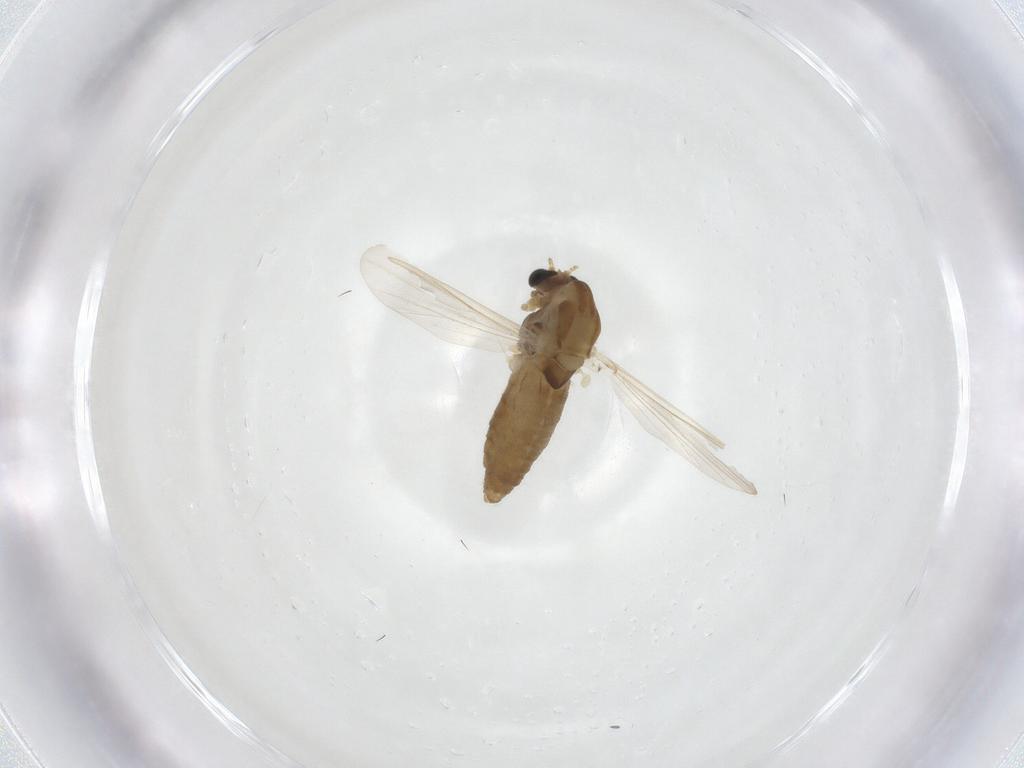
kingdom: Animalia
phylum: Arthropoda
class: Insecta
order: Diptera
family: Chironomidae
